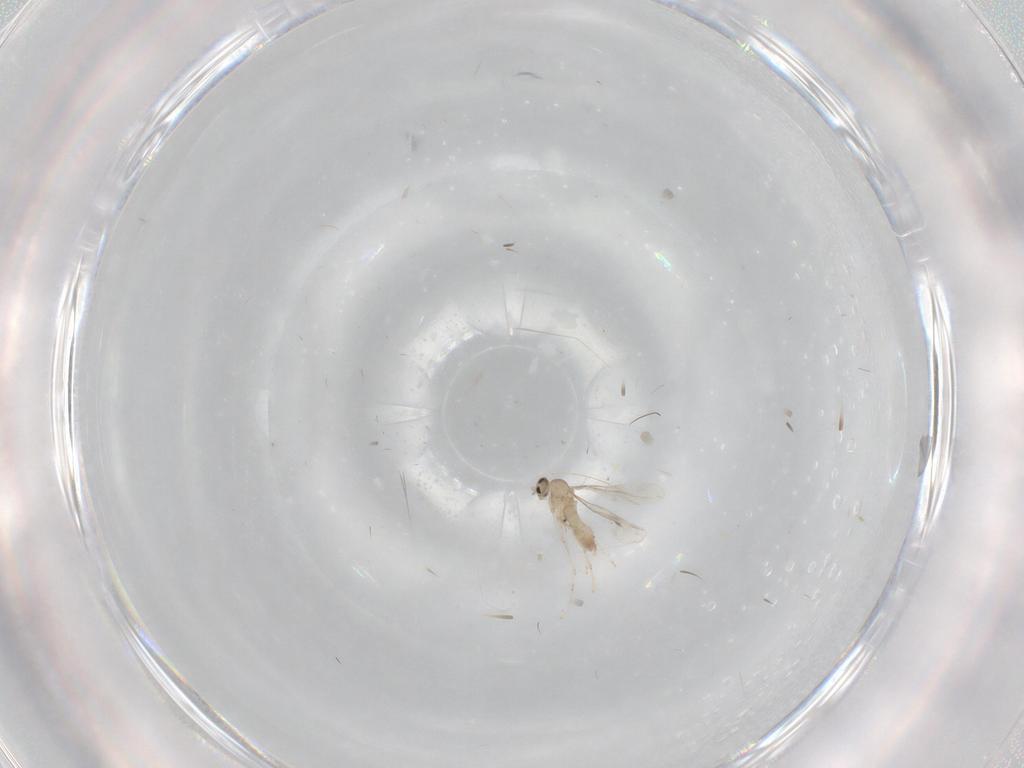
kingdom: Animalia
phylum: Arthropoda
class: Insecta
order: Diptera
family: Cecidomyiidae
